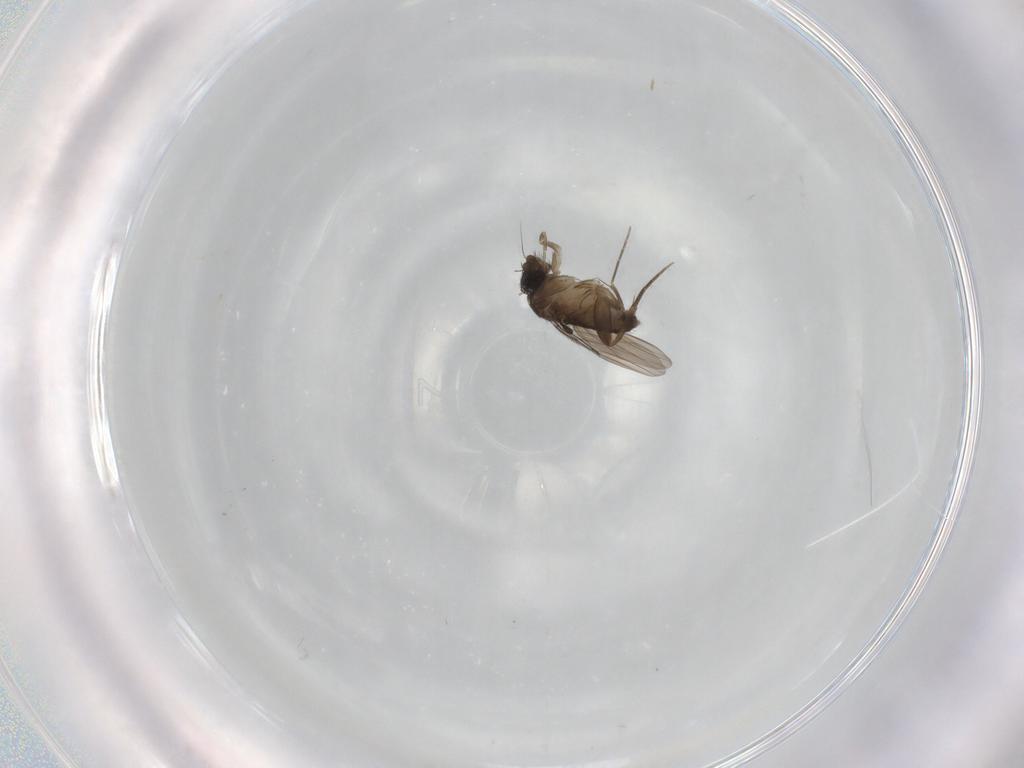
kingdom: Animalia
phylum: Arthropoda
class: Insecta
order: Diptera
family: Phoridae
